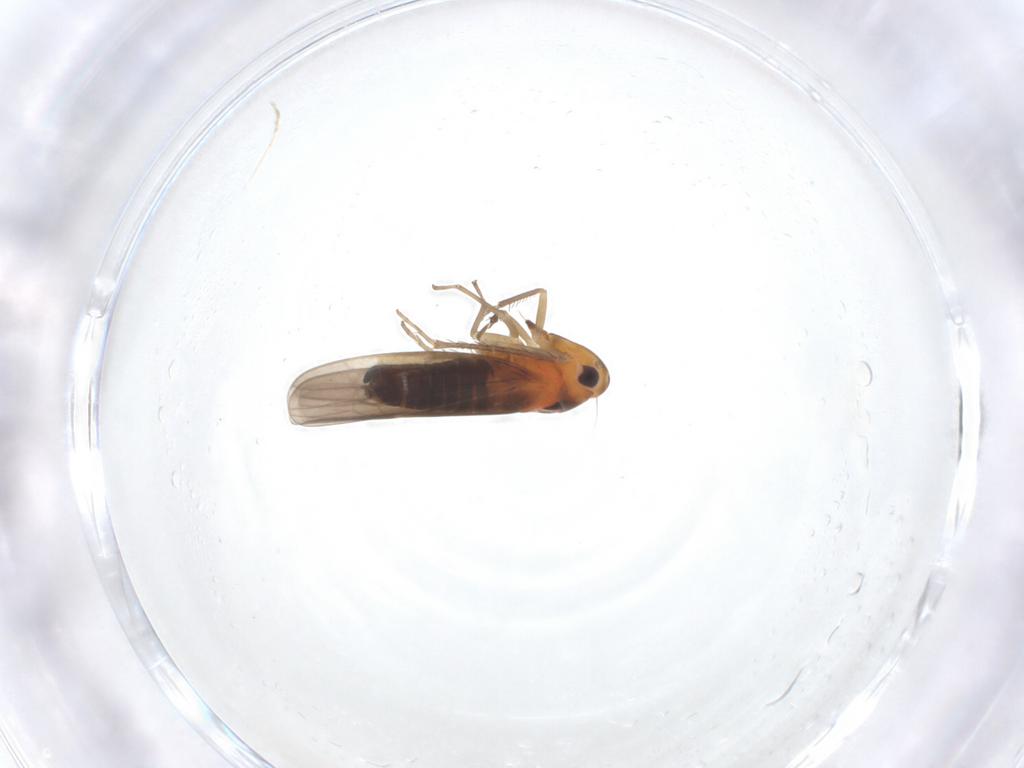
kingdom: Animalia
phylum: Arthropoda
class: Insecta
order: Hemiptera
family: Cicadellidae
